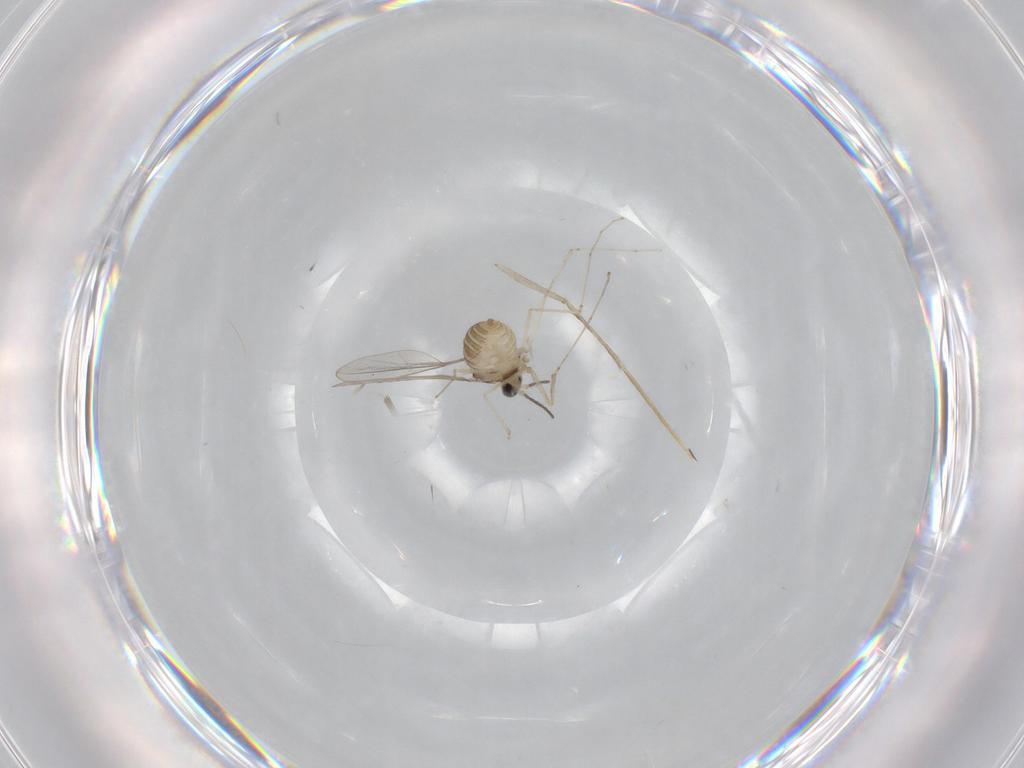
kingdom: Animalia
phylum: Arthropoda
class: Insecta
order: Diptera
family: Cecidomyiidae
